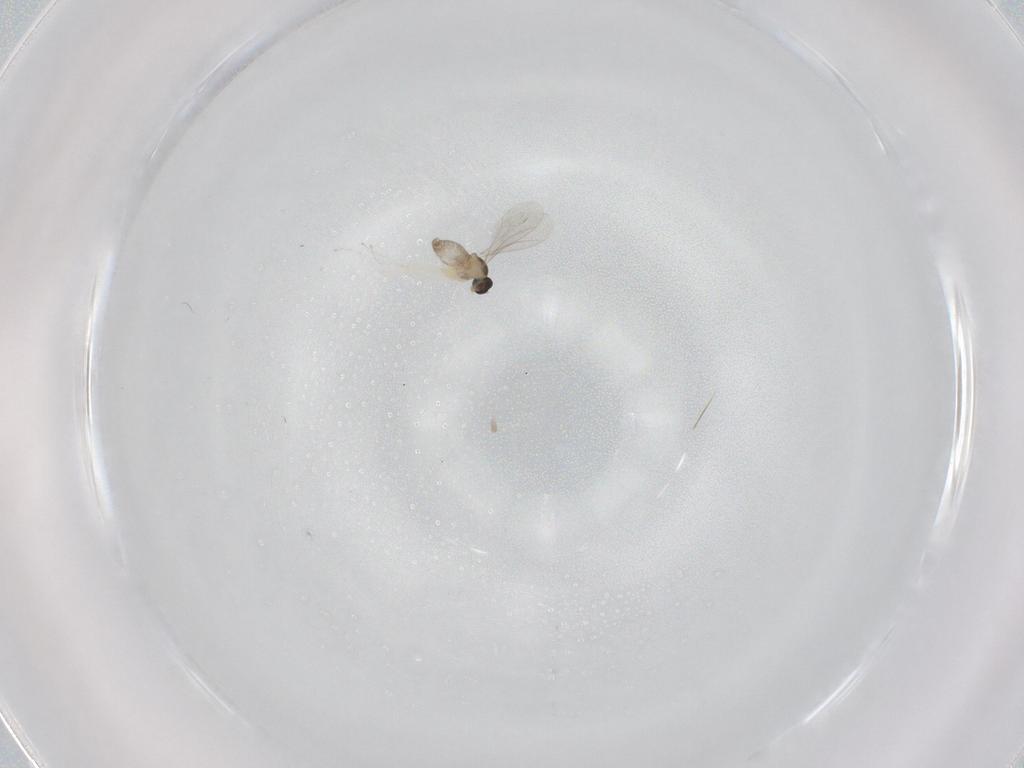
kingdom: Animalia
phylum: Arthropoda
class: Insecta
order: Diptera
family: Cecidomyiidae
